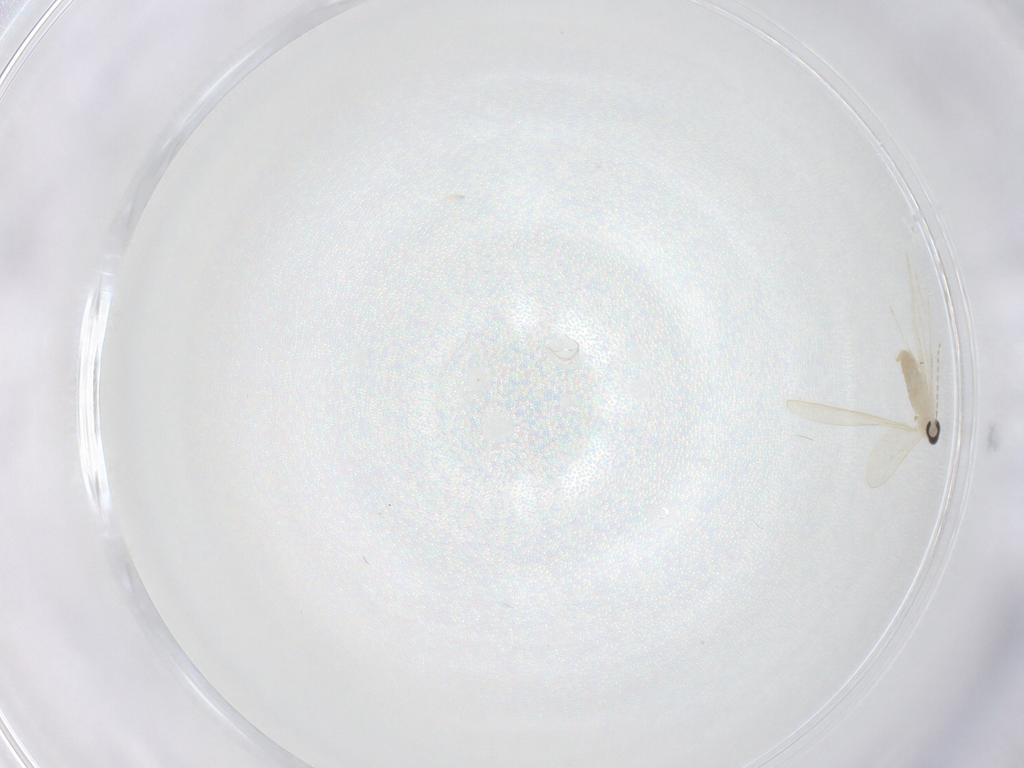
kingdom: Animalia
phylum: Arthropoda
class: Insecta
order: Diptera
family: Cecidomyiidae
